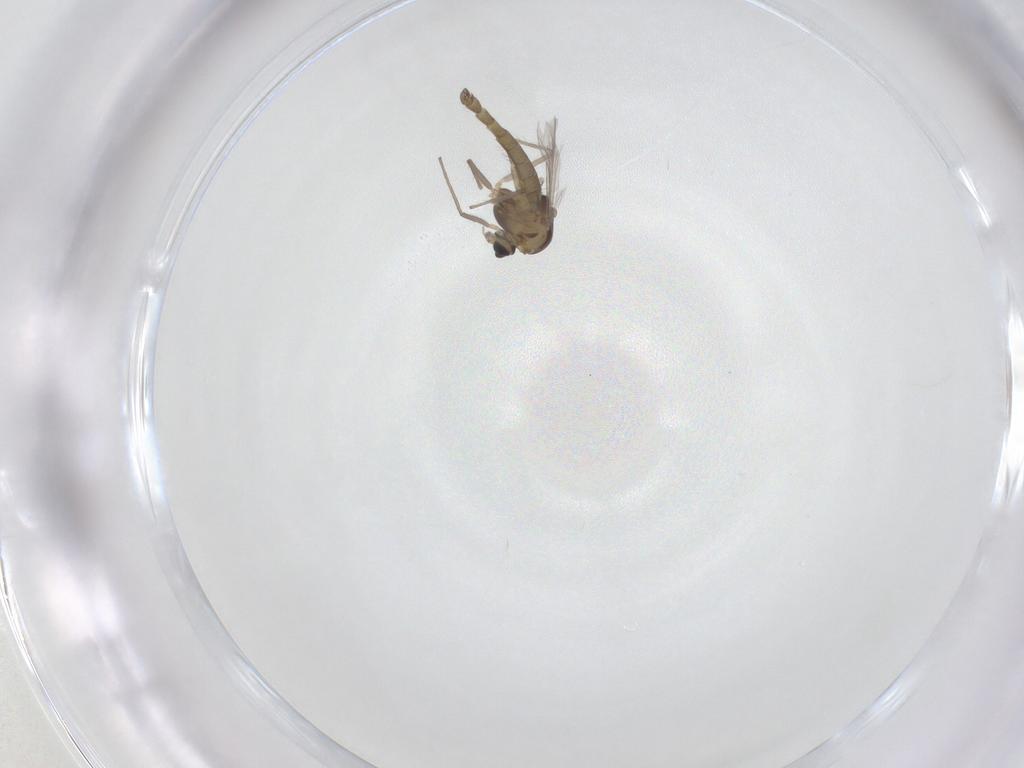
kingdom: Animalia
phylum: Arthropoda
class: Insecta
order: Diptera
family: Chironomidae
